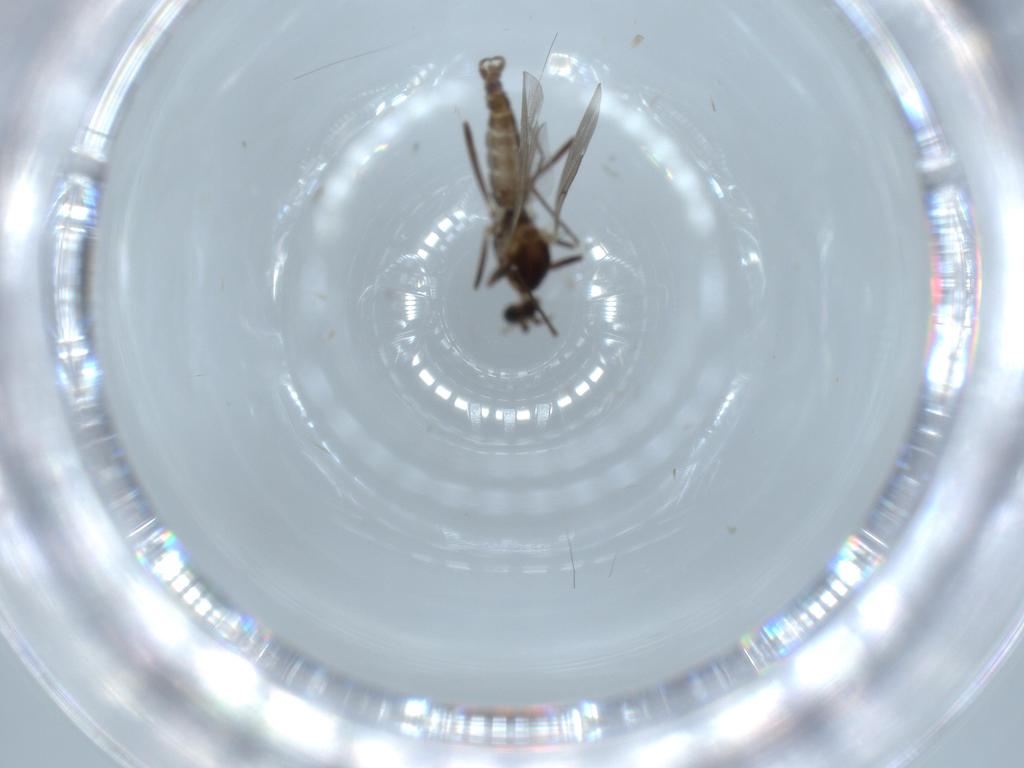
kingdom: Animalia
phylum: Arthropoda
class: Insecta
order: Diptera
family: Cecidomyiidae
